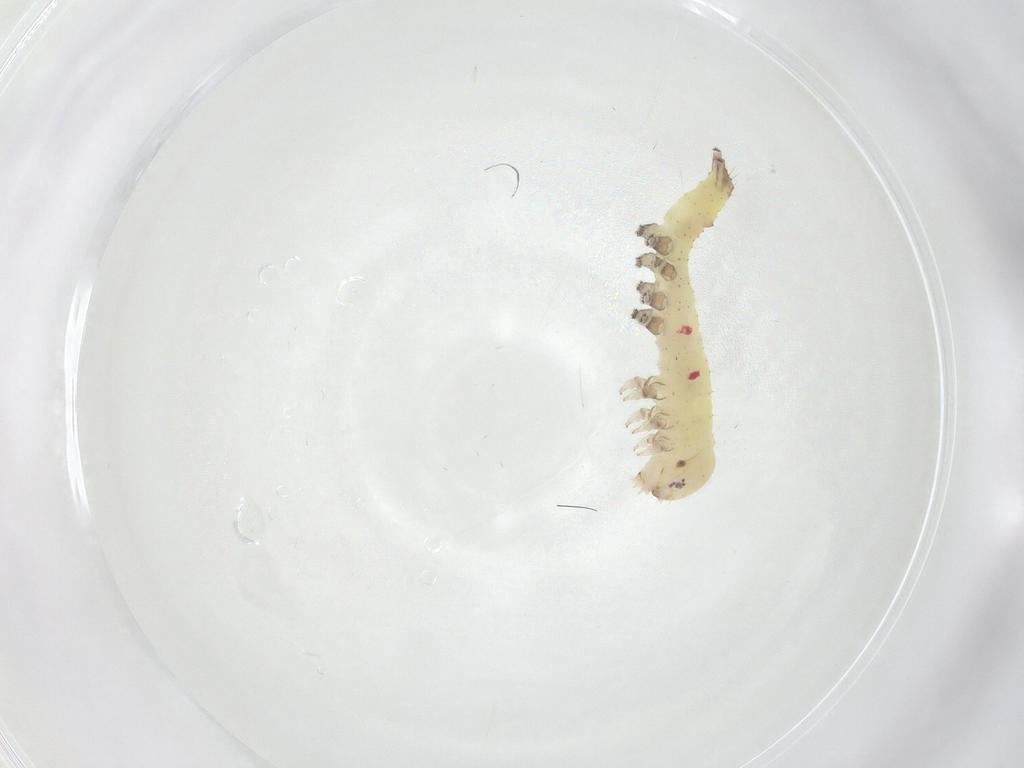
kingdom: Animalia
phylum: Arthropoda
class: Insecta
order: Lepidoptera
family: Notodontidae
